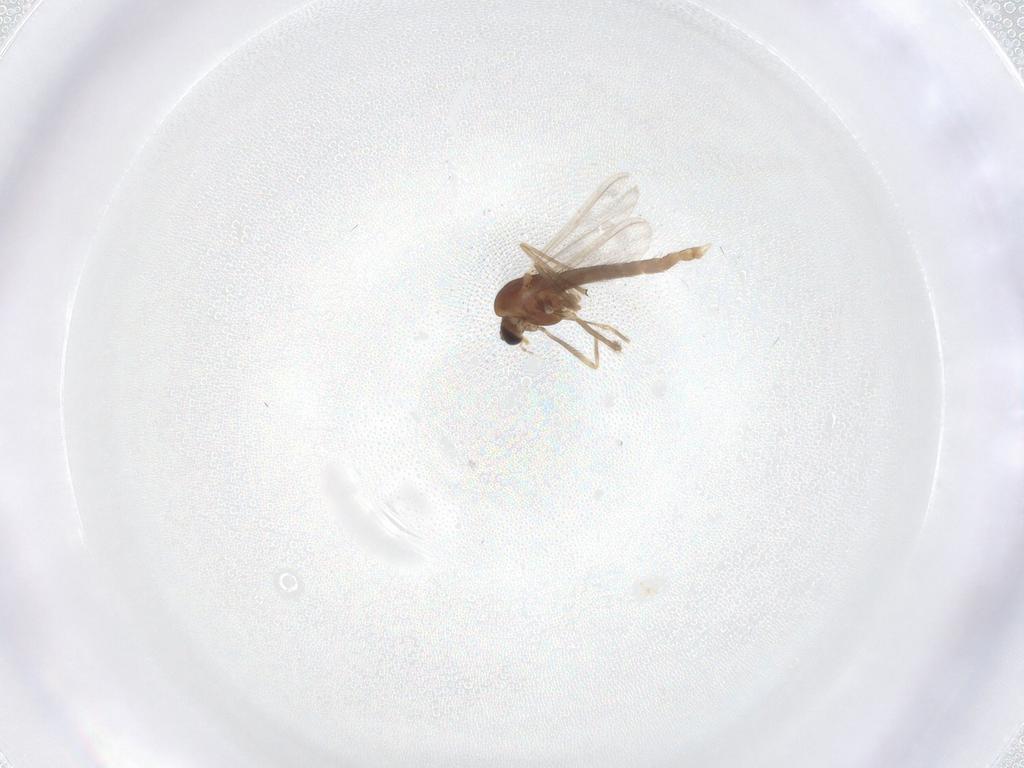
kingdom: Animalia
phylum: Arthropoda
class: Insecta
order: Diptera
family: Chironomidae
